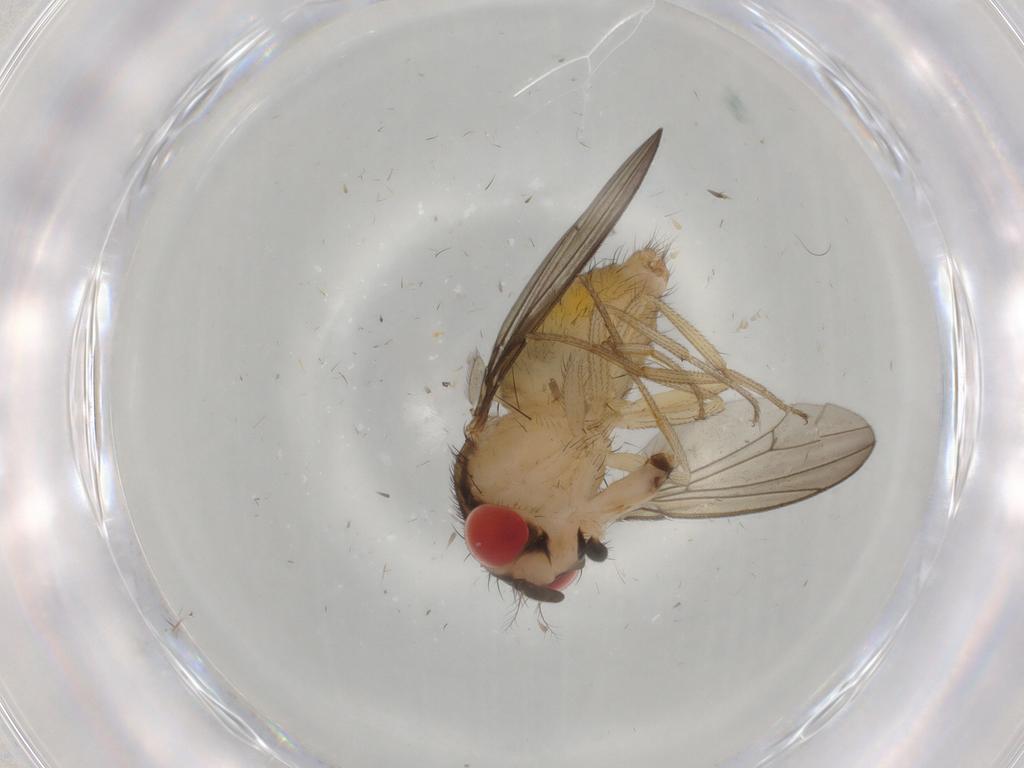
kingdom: Animalia
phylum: Arthropoda
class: Insecta
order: Diptera
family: Drosophilidae
